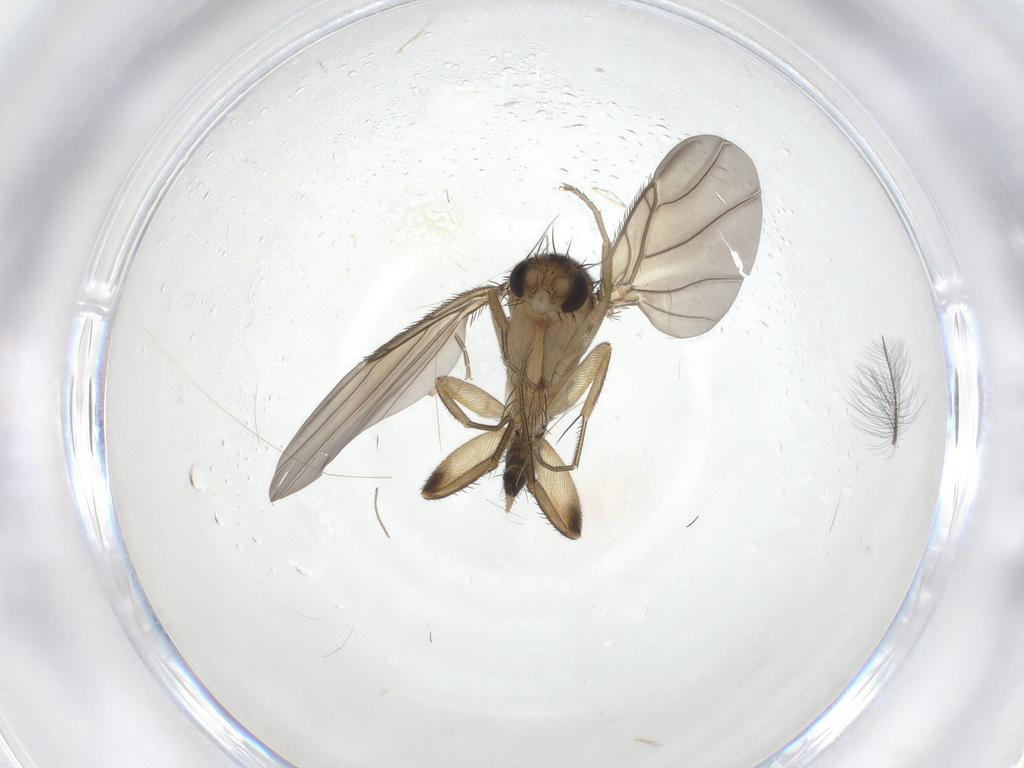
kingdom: Animalia
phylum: Arthropoda
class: Insecta
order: Diptera
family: Phoridae
